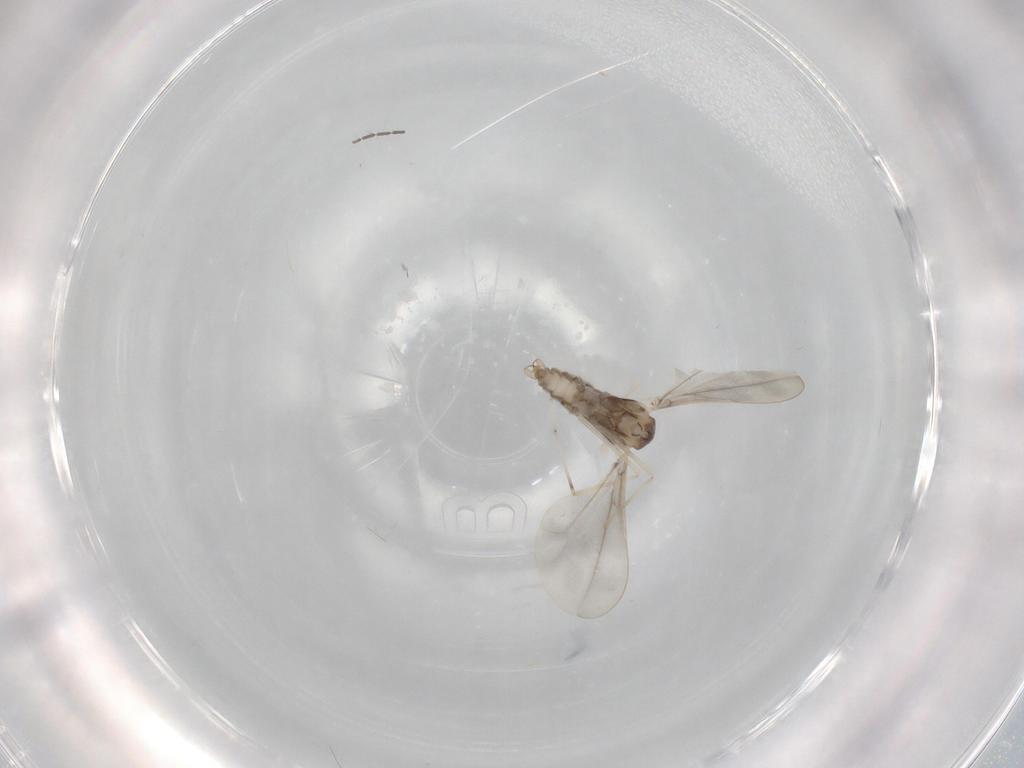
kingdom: Animalia
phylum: Arthropoda
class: Insecta
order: Diptera
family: Cecidomyiidae
